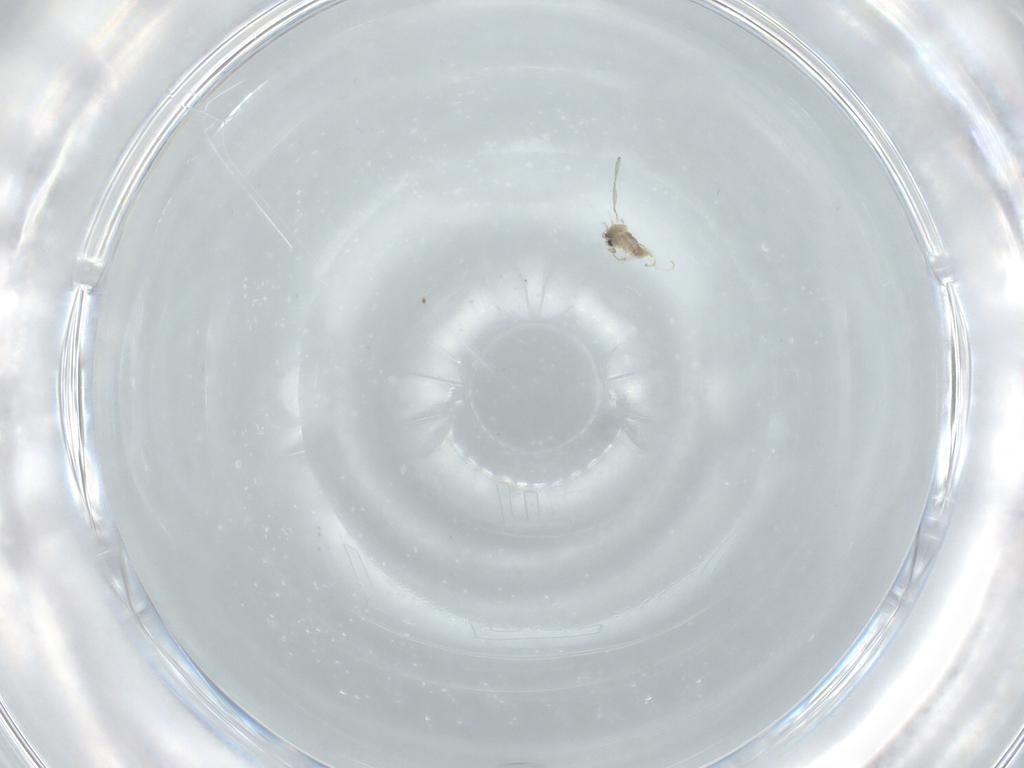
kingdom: Animalia
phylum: Arthropoda
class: Insecta
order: Diptera
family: Cecidomyiidae
